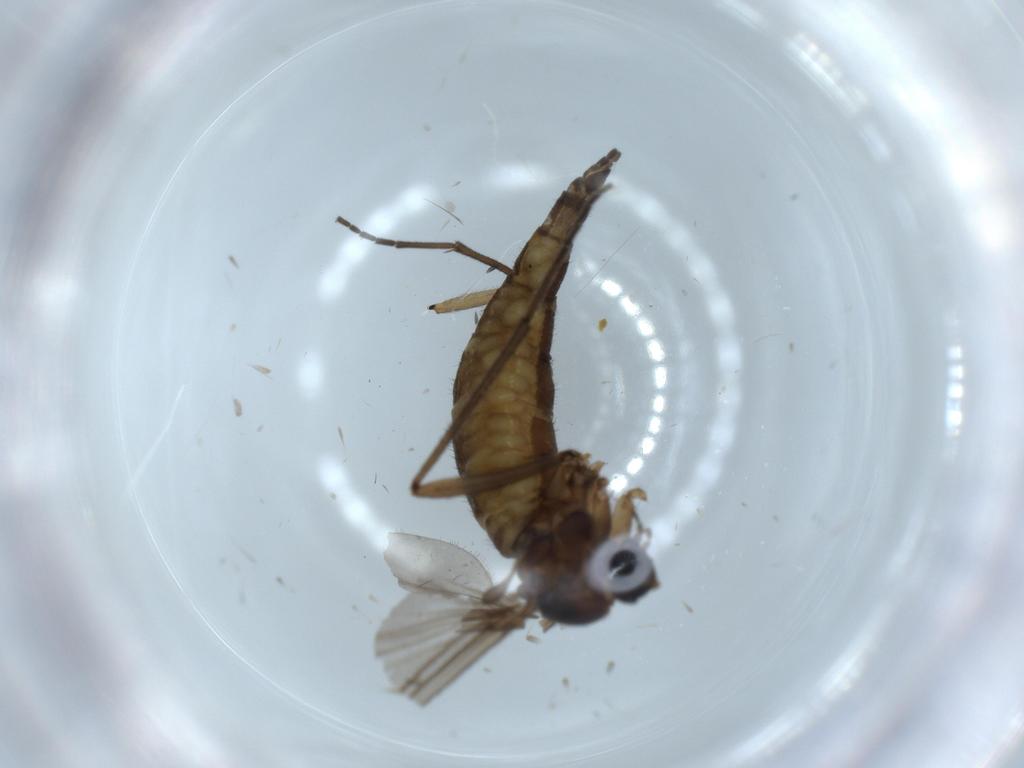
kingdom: Animalia
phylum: Arthropoda
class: Insecta
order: Diptera
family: Sciaridae
